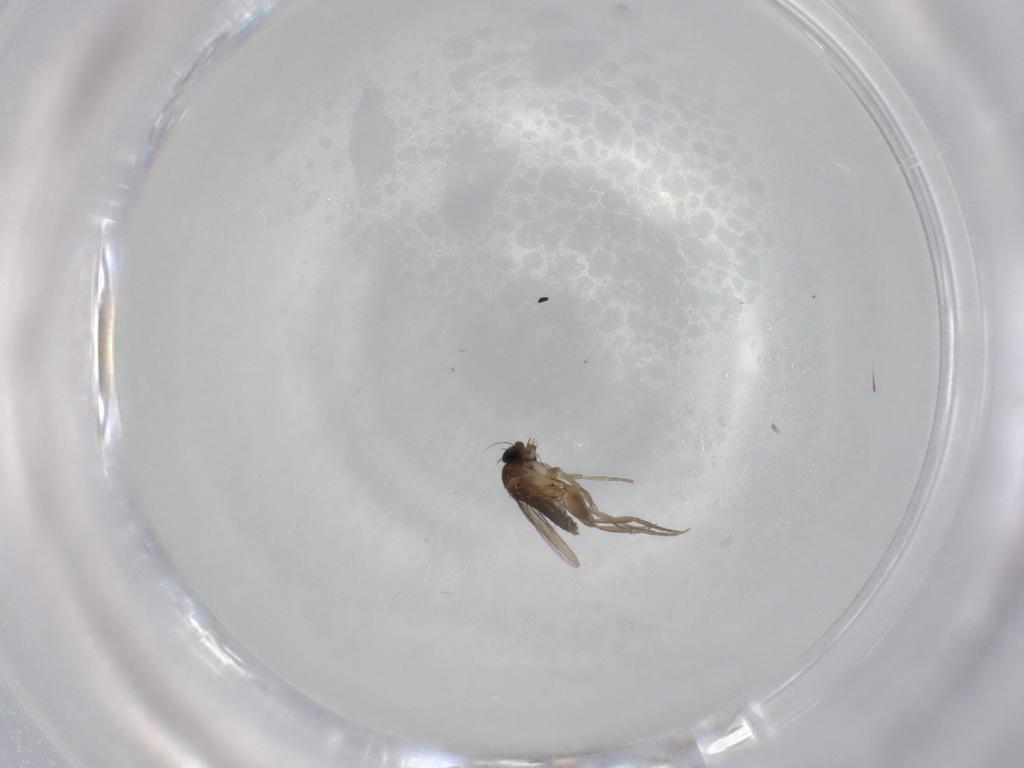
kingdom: Animalia
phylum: Arthropoda
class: Insecta
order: Diptera
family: Phoridae
